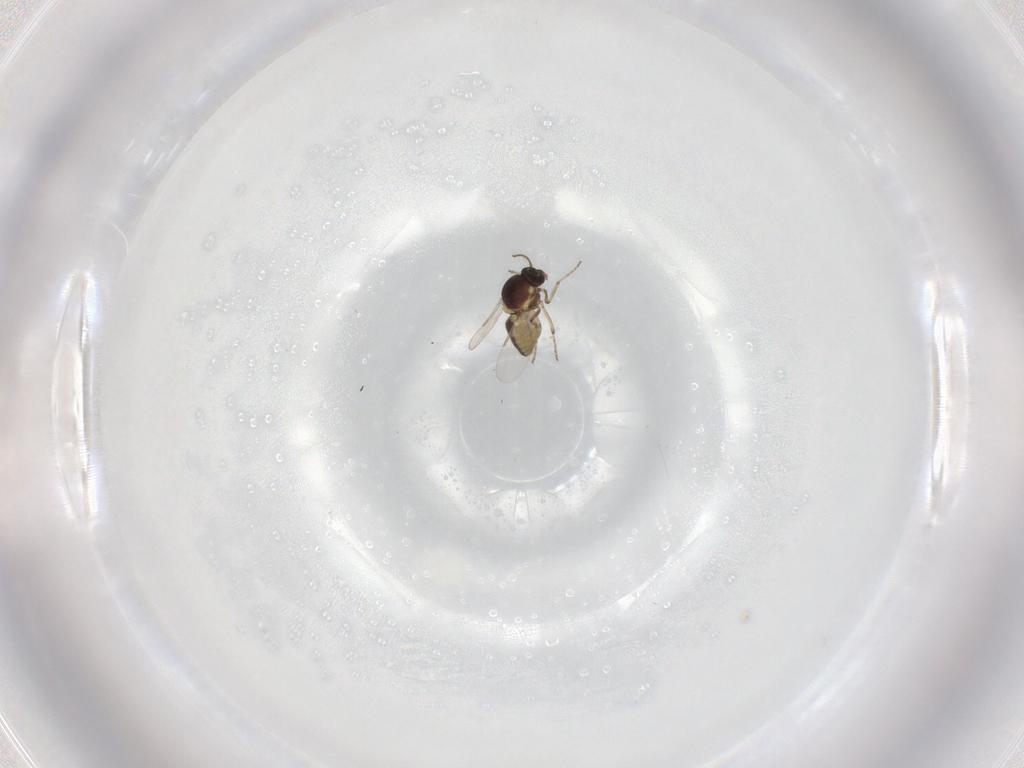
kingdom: Animalia
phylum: Arthropoda
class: Insecta
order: Diptera
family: Ceratopogonidae
